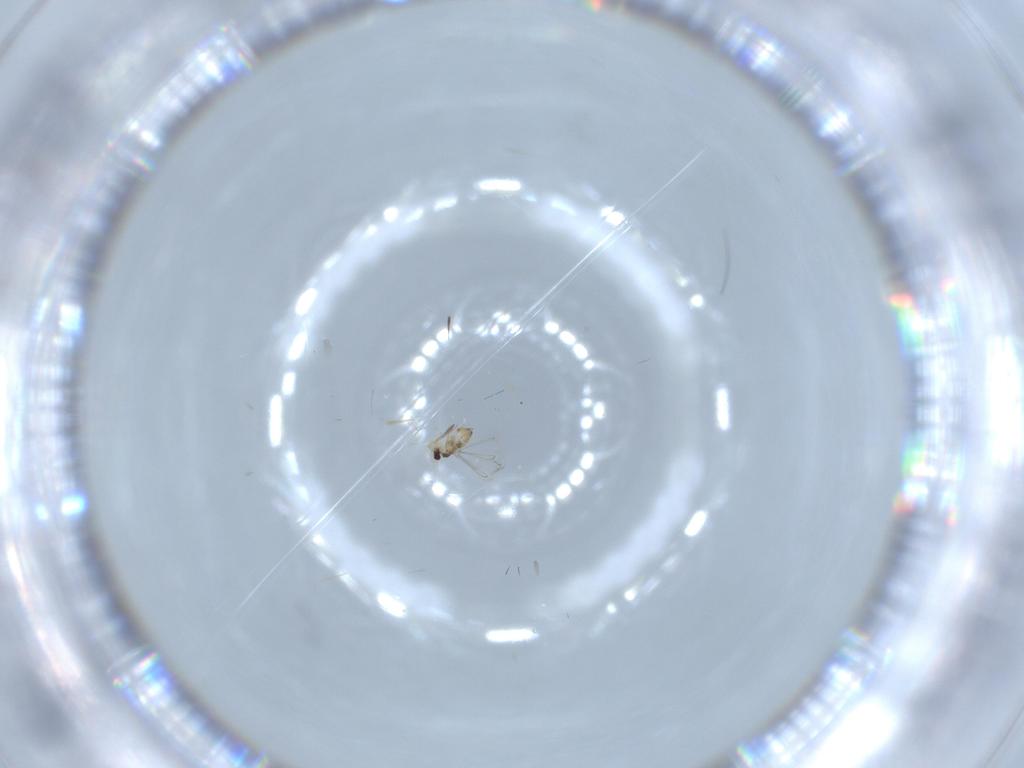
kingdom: Animalia
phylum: Arthropoda
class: Insecta
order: Hymenoptera
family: Mymaridae
